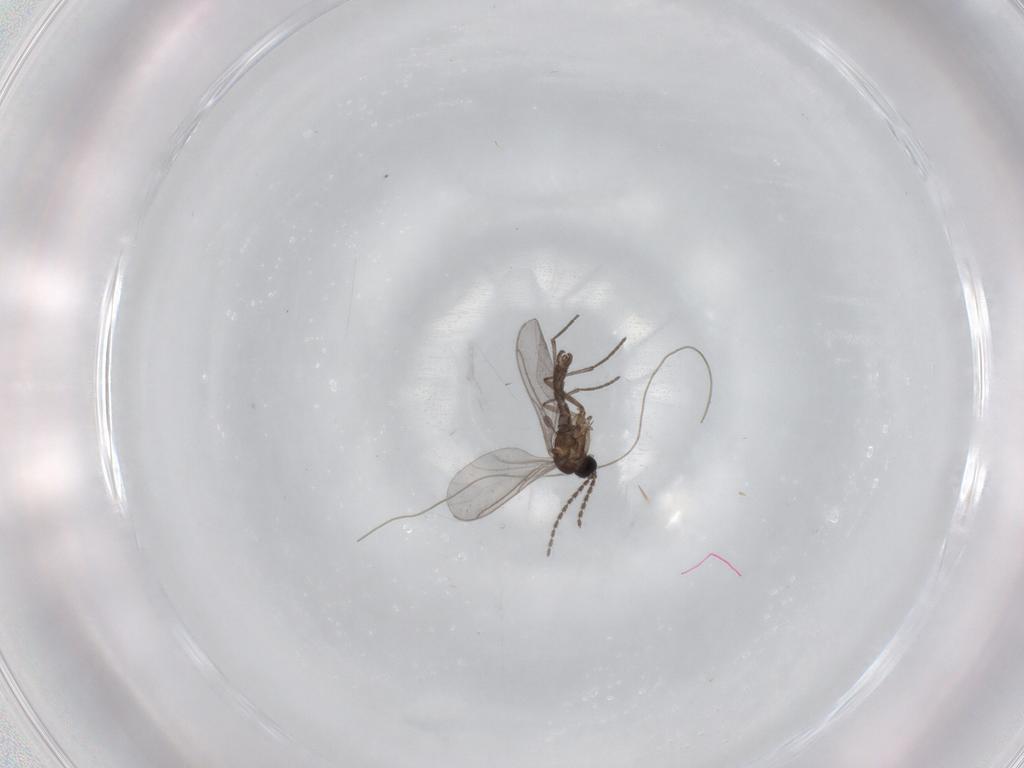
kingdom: Animalia
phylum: Arthropoda
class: Insecta
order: Diptera
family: Sciaridae
